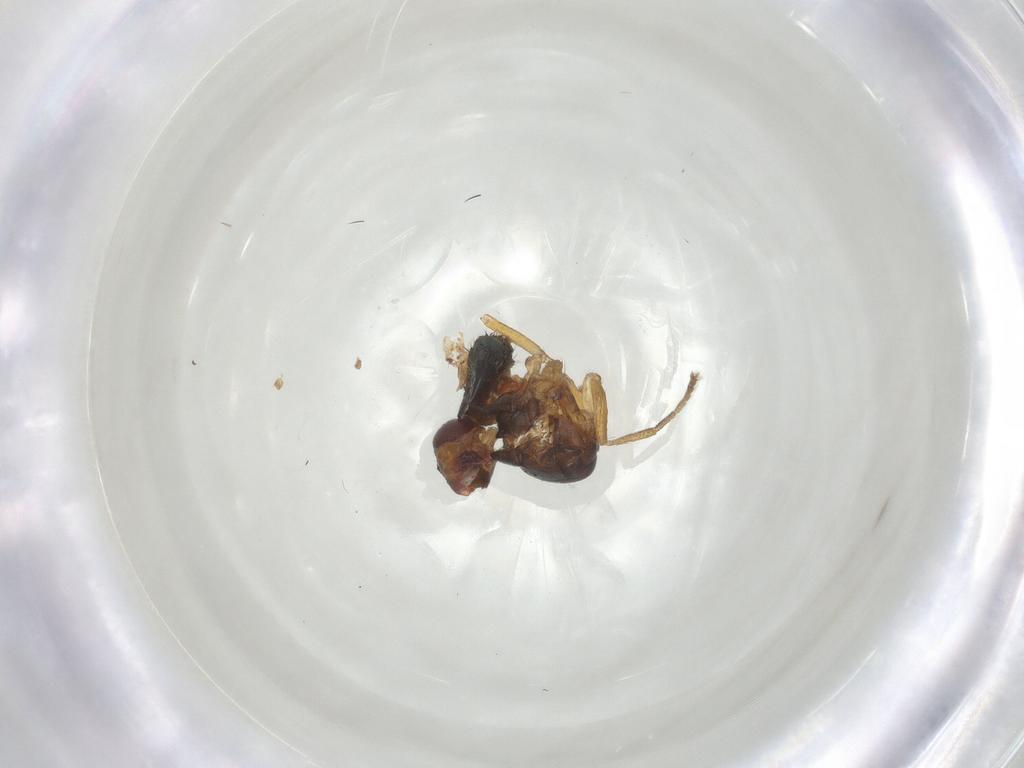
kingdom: Animalia
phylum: Arthropoda
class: Insecta
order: Diptera
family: Drosophilidae
